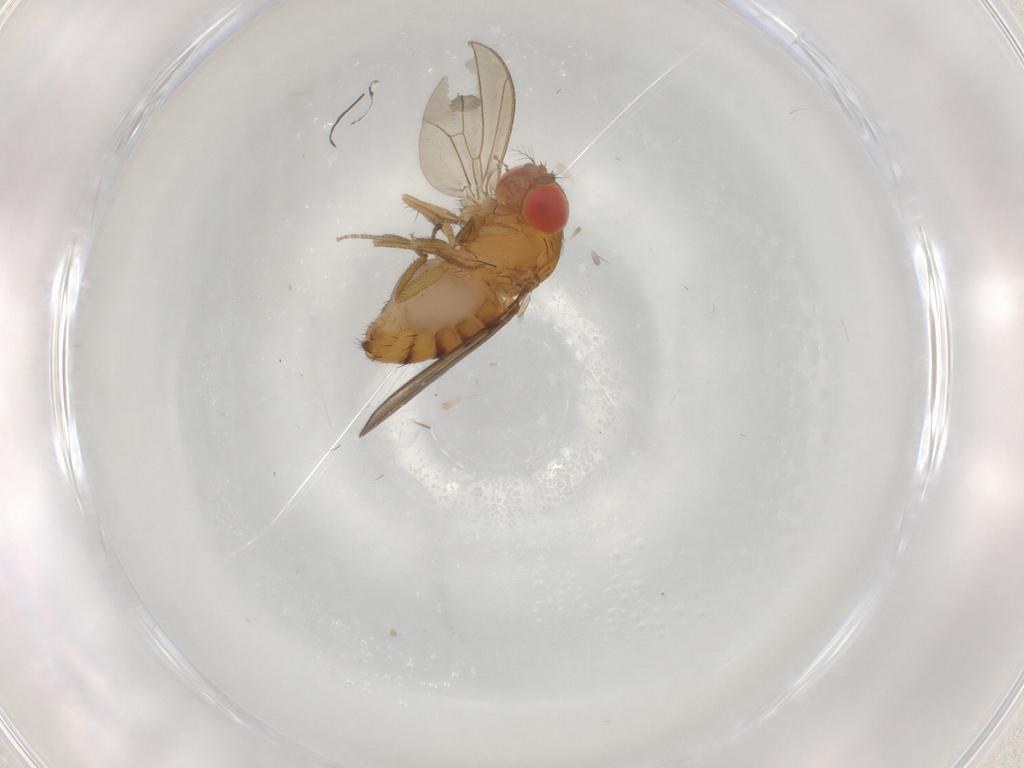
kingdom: Animalia
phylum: Arthropoda
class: Insecta
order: Diptera
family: Drosophilidae
